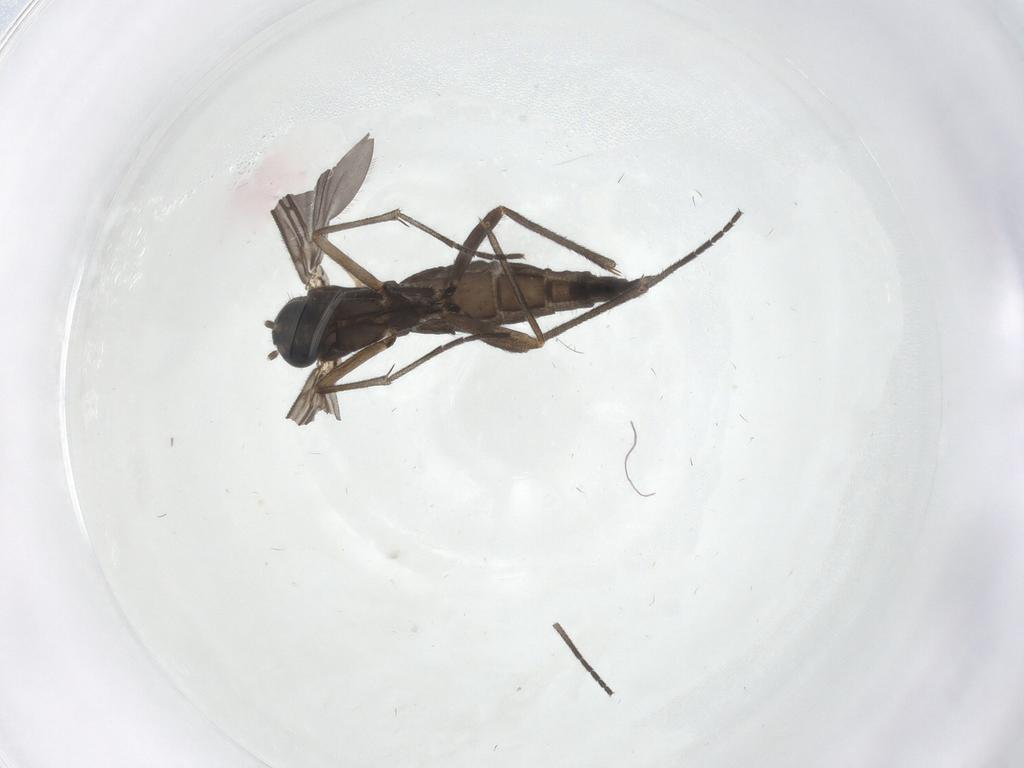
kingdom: Animalia
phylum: Arthropoda
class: Insecta
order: Diptera
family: Sciaridae
